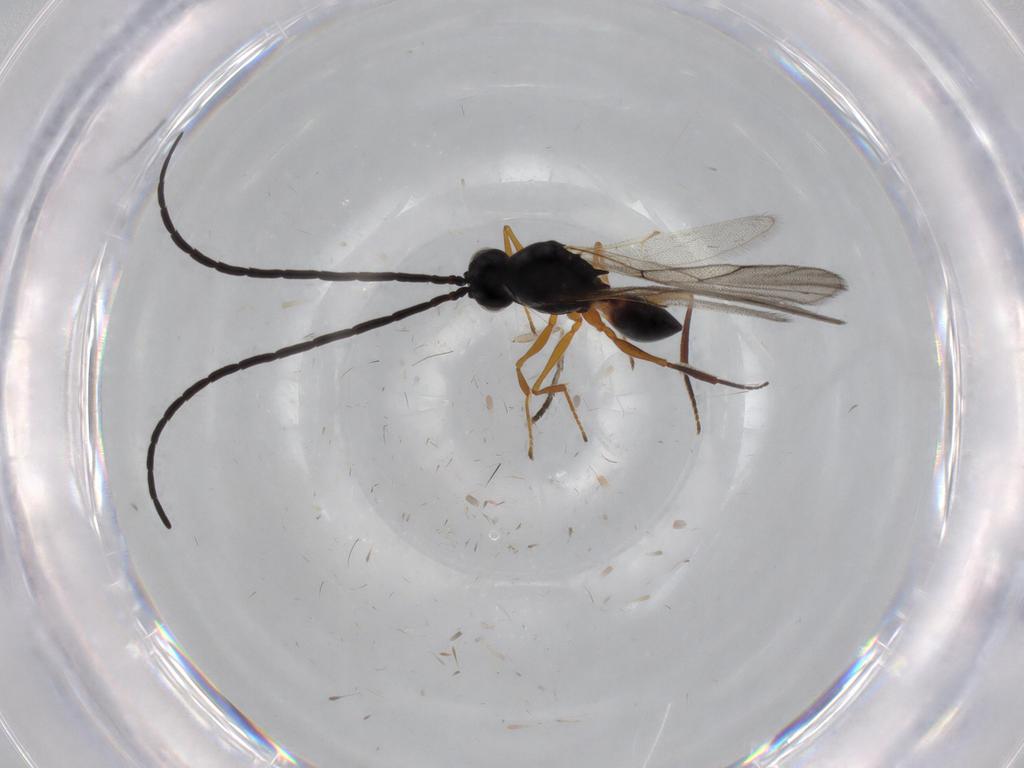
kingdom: Animalia
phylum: Arthropoda
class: Insecta
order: Hymenoptera
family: Figitidae
